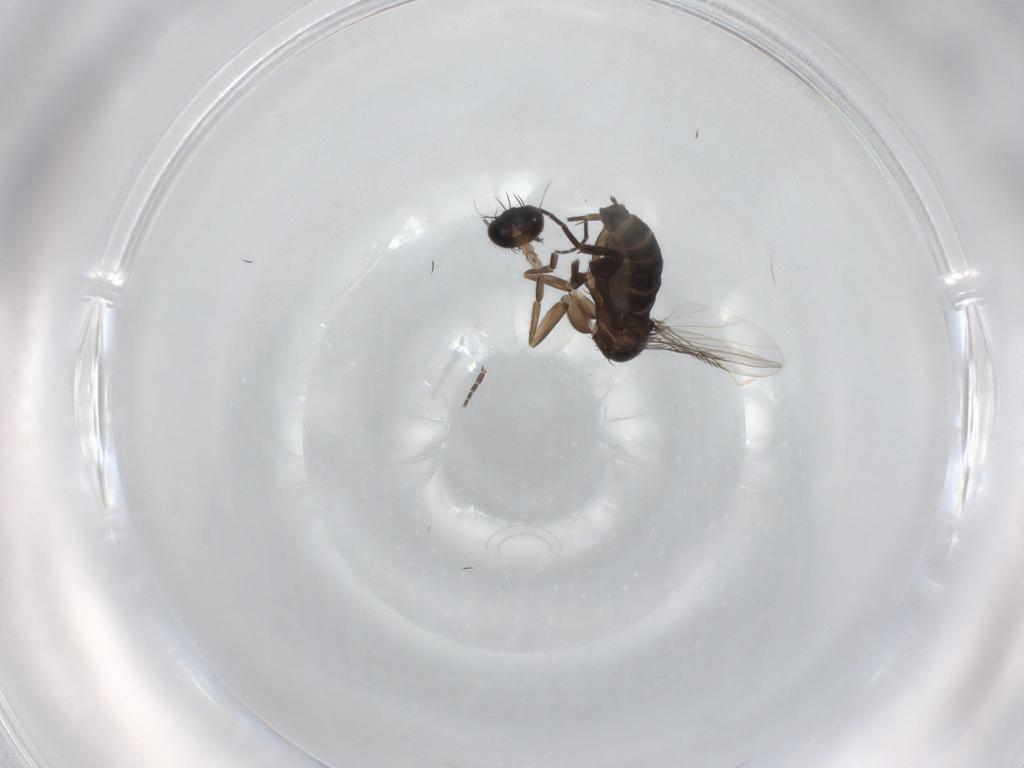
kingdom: Animalia
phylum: Arthropoda
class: Insecta
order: Diptera
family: Phoridae
